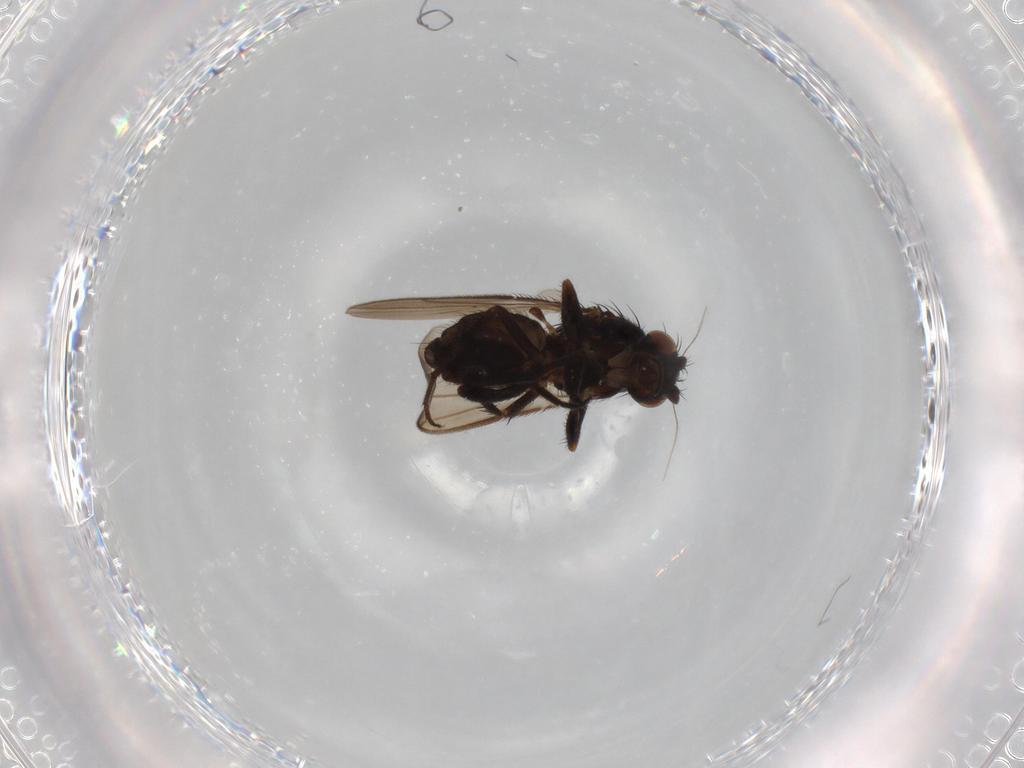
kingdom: Animalia
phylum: Arthropoda
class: Insecta
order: Diptera
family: Sphaeroceridae
